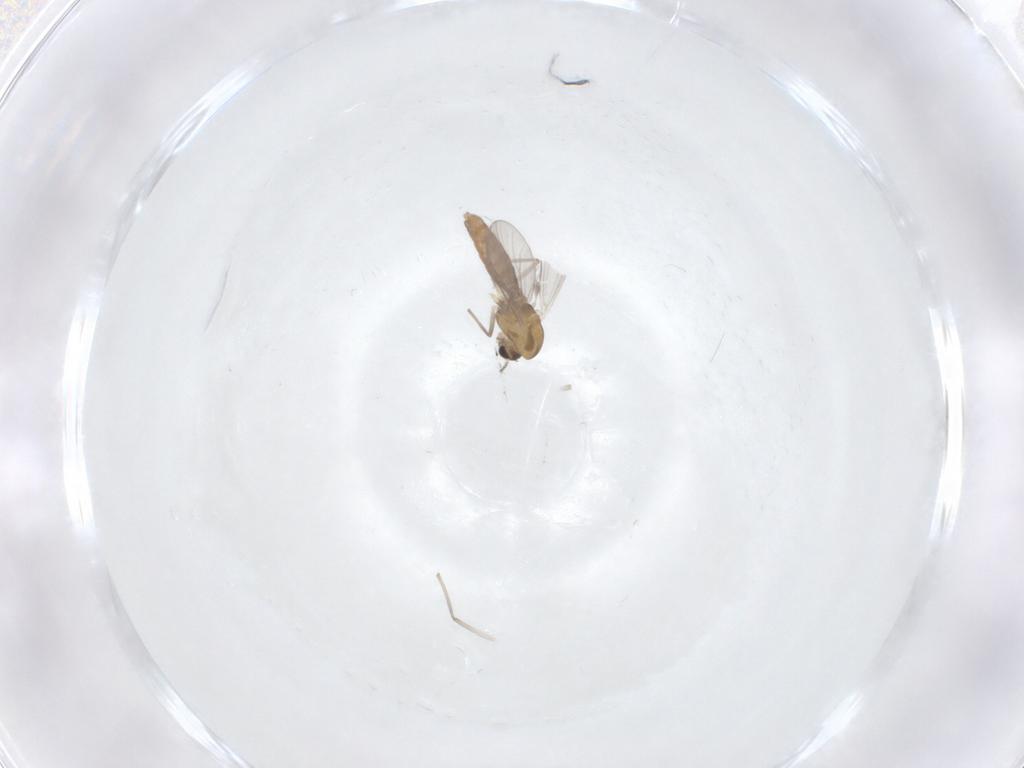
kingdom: Animalia
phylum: Arthropoda
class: Insecta
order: Diptera
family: Chironomidae
